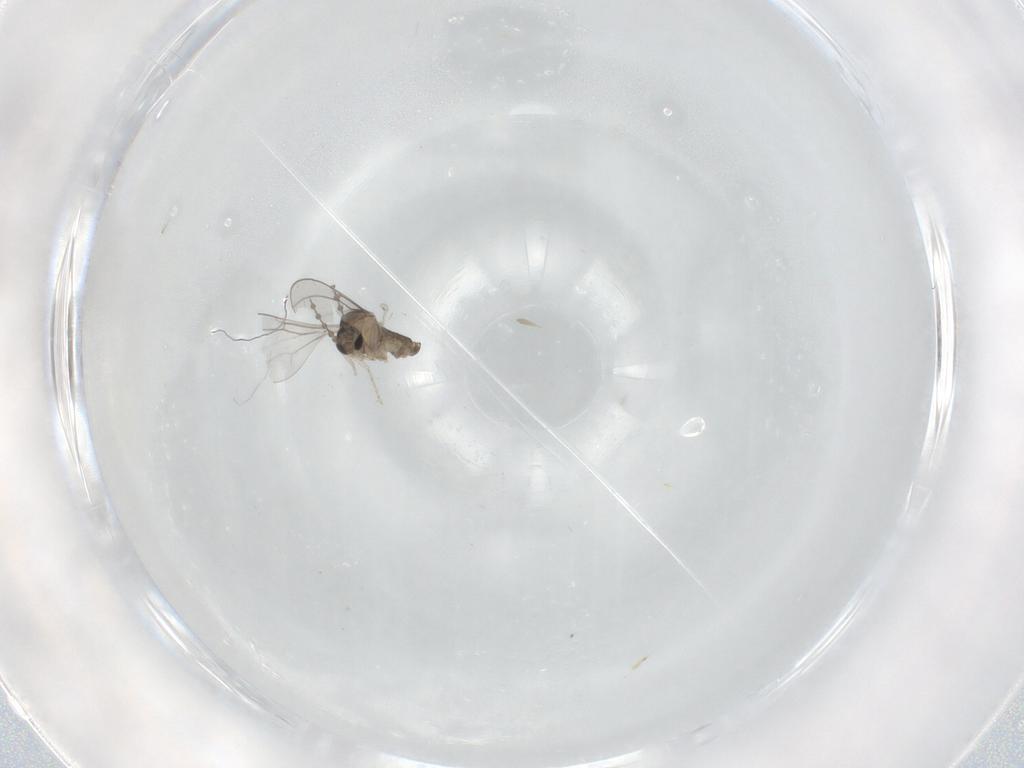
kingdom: Animalia
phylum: Arthropoda
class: Insecta
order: Diptera
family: Cecidomyiidae
